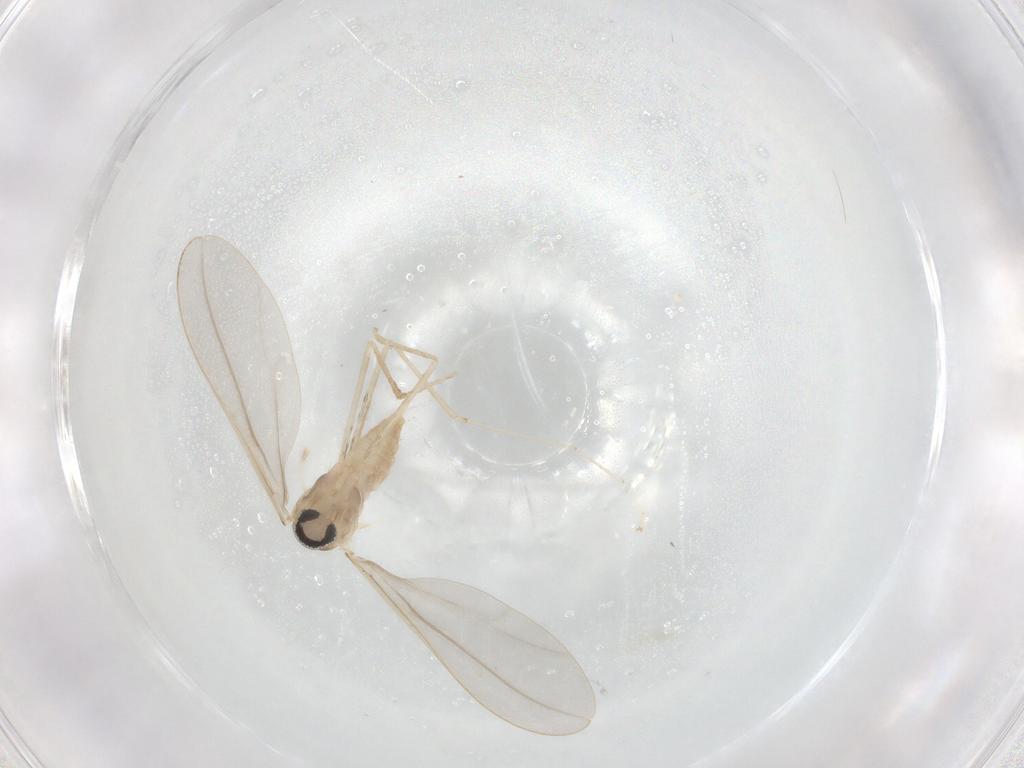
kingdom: Animalia
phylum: Arthropoda
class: Insecta
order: Diptera
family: Cecidomyiidae
